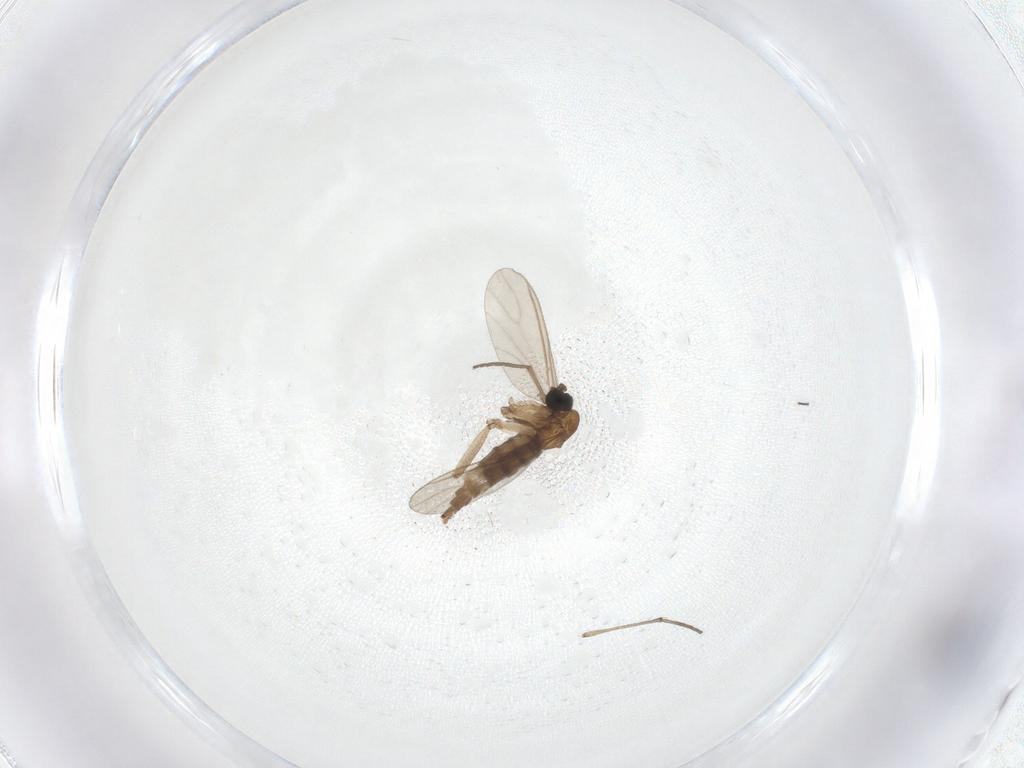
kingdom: Animalia
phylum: Arthropoda
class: Insecta
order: Diptera
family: Sciaridae
